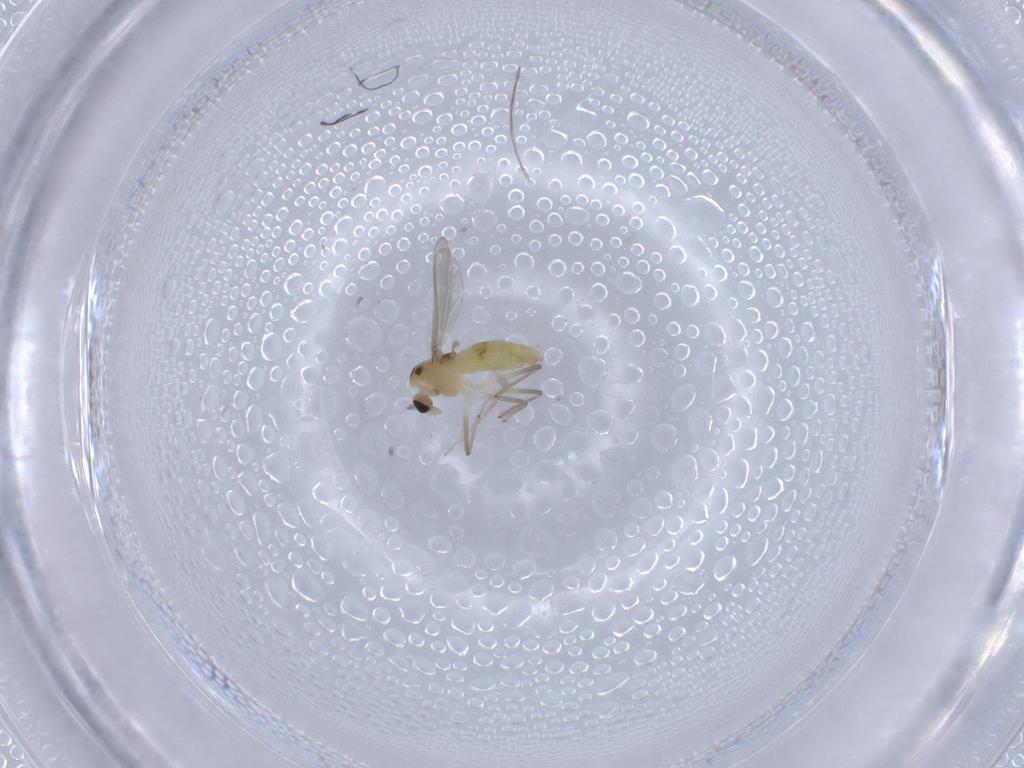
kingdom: Animalia
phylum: Arthropoda
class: Insecta
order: Diptera
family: Chironomidae
